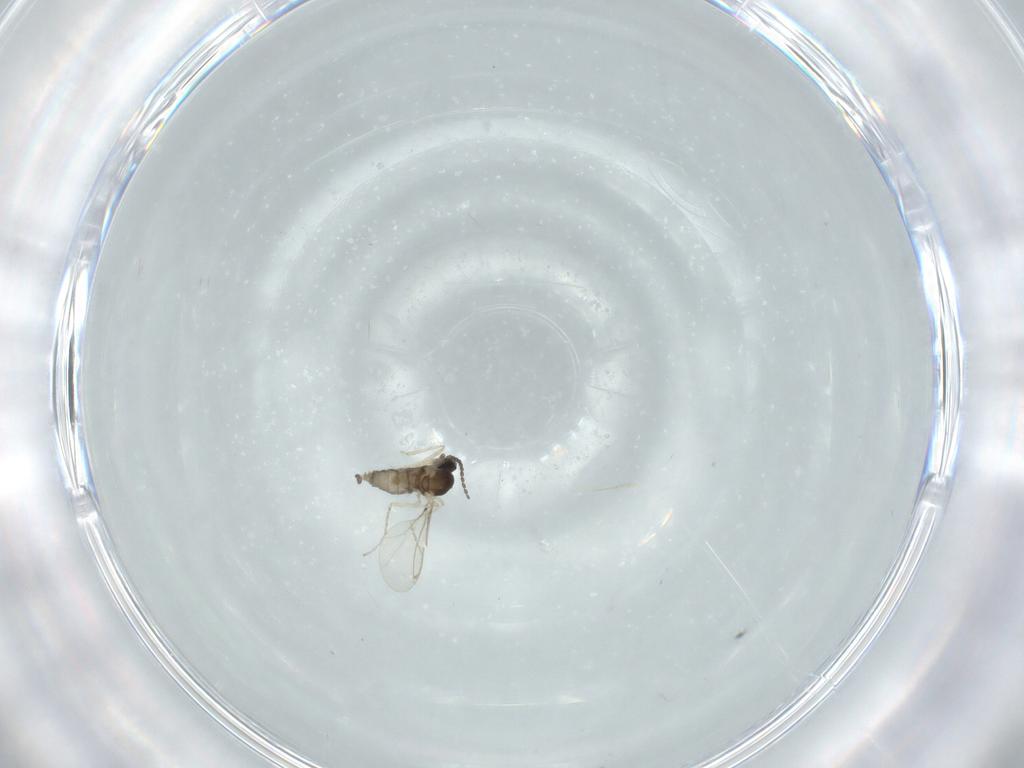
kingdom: Animalia
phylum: Arthropoda
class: Insecta
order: Diptera
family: Cecidomyiidae
